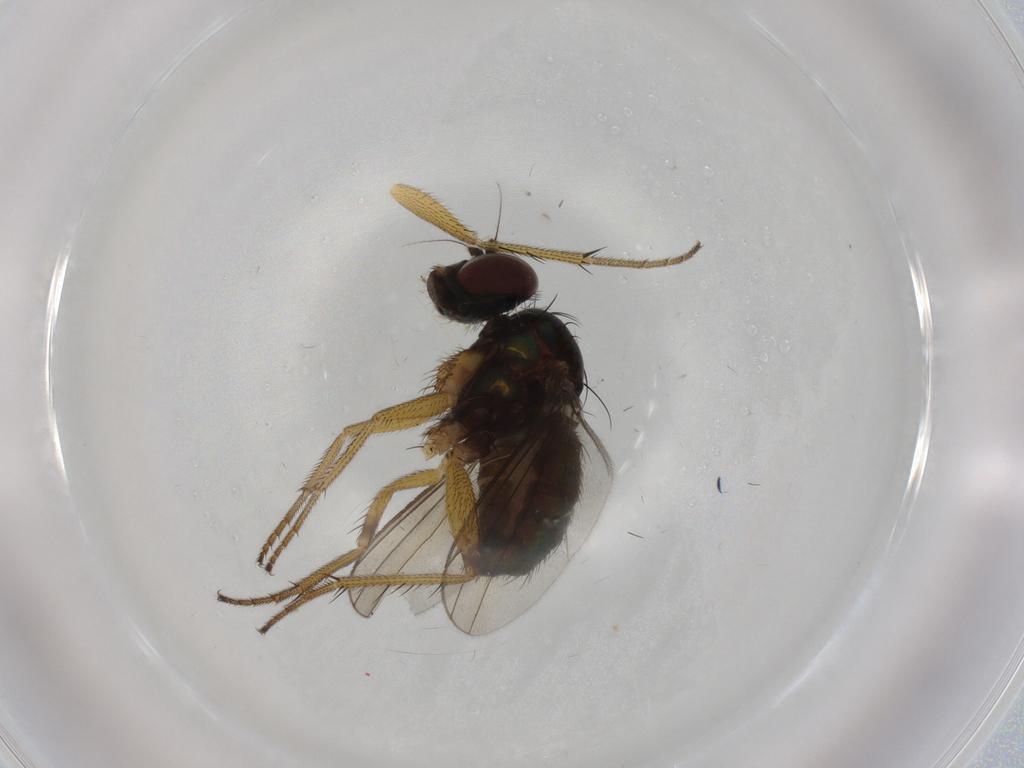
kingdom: Animalia
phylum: Arthropoda
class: Insecta
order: Diptera
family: Dolichopodidae
